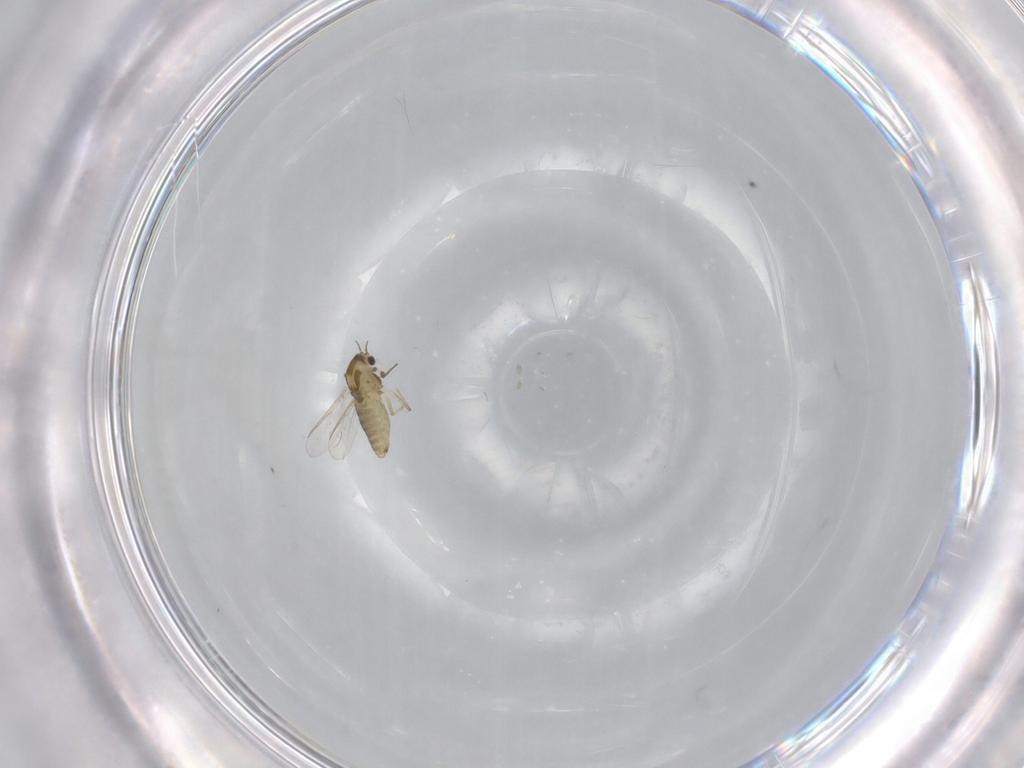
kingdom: Animalia
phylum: Arthropoda
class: Insecta
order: Diptera
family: Chironomidae
